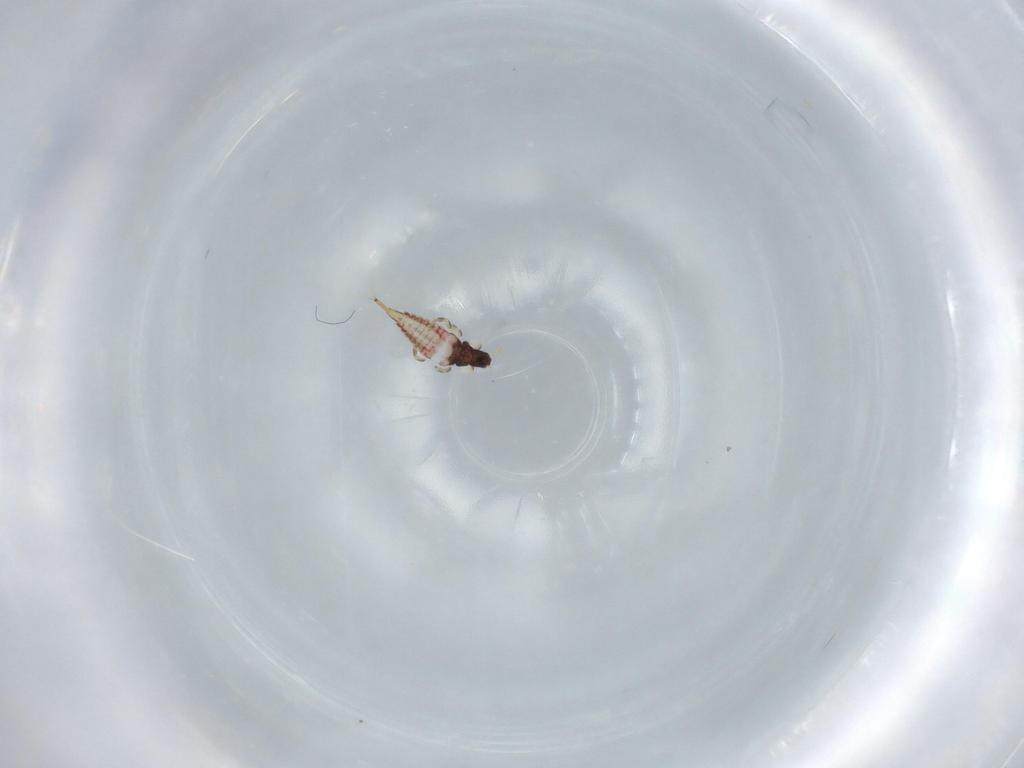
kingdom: Animalia
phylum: Arthropoda
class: Insecta
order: Thysanoptera
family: Phlaeothripidae
